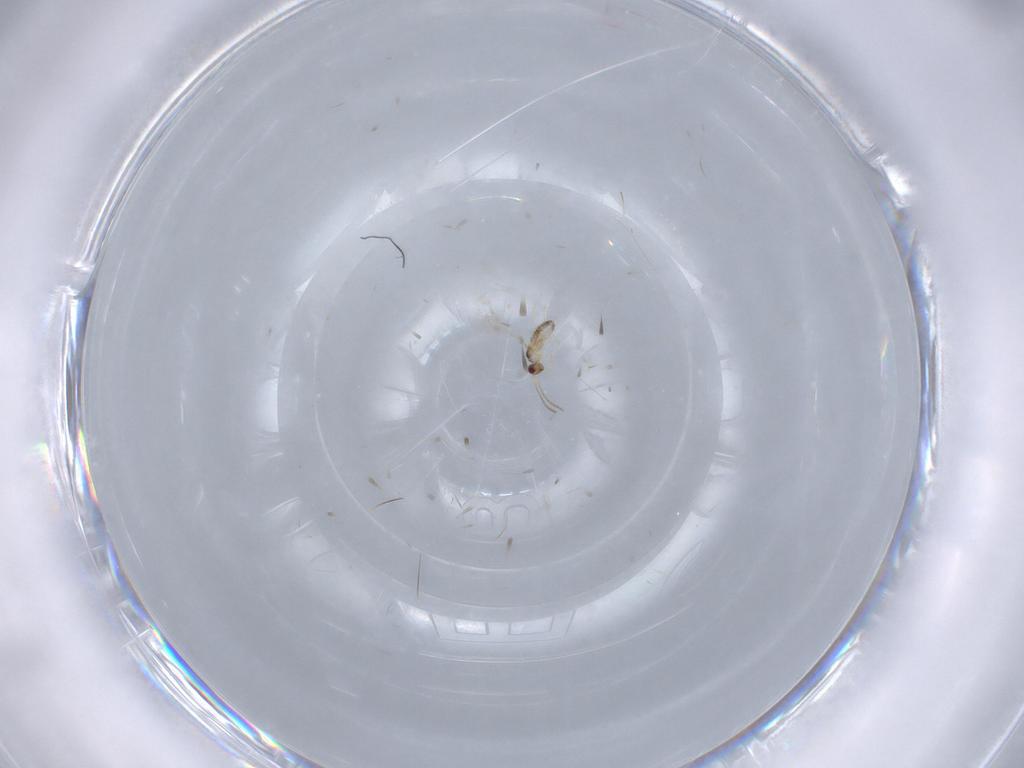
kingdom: Animalia
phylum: Arthropoda
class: Insecta
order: Hymenoptera
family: Mymaridae
